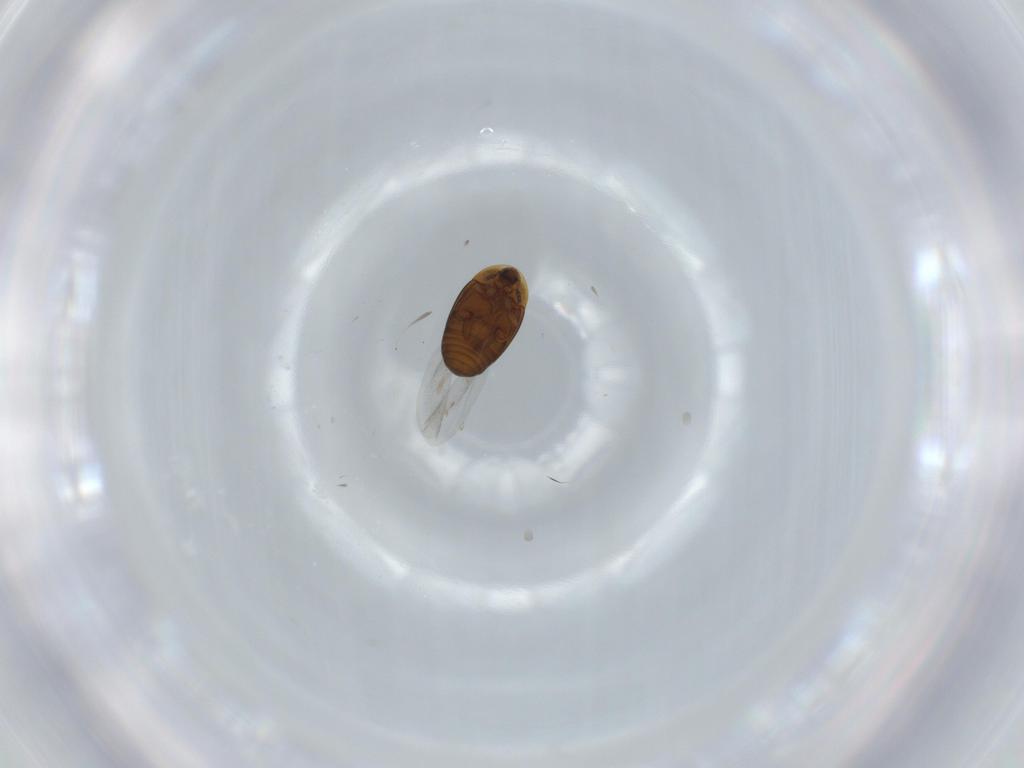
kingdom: Animalia
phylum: Arthropoda
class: Insecta
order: Coleoptera
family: Corylophidae
